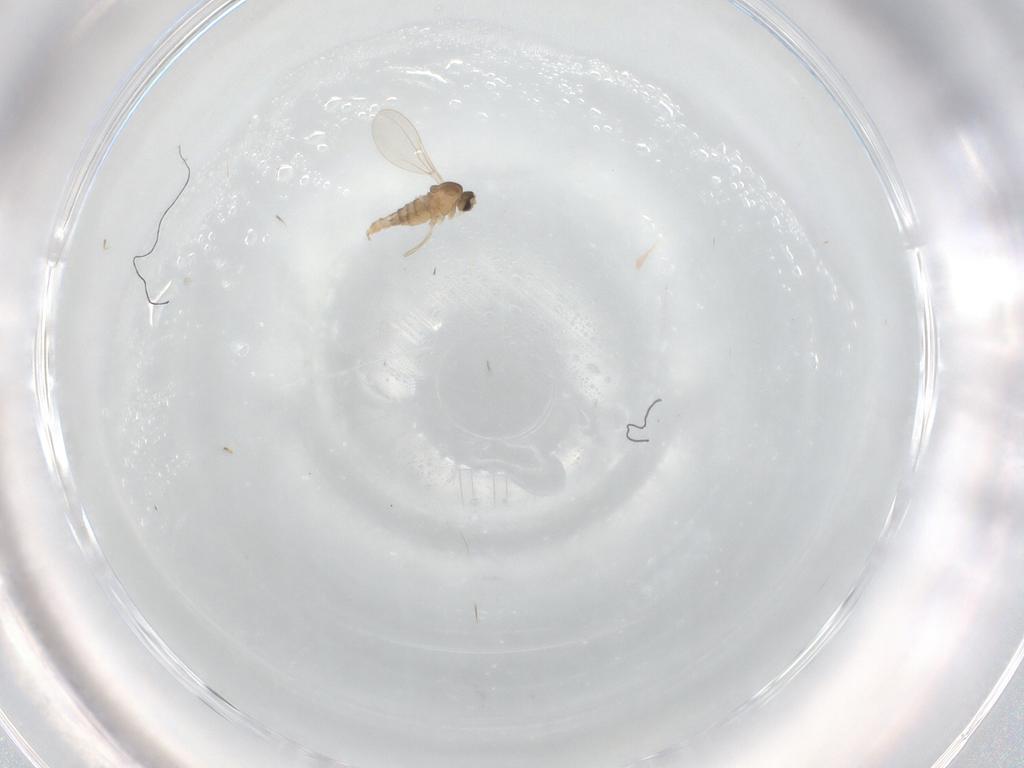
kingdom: Animalia
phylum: Arthropoda
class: Insecta
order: Diptera
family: Cecidomyiidae
